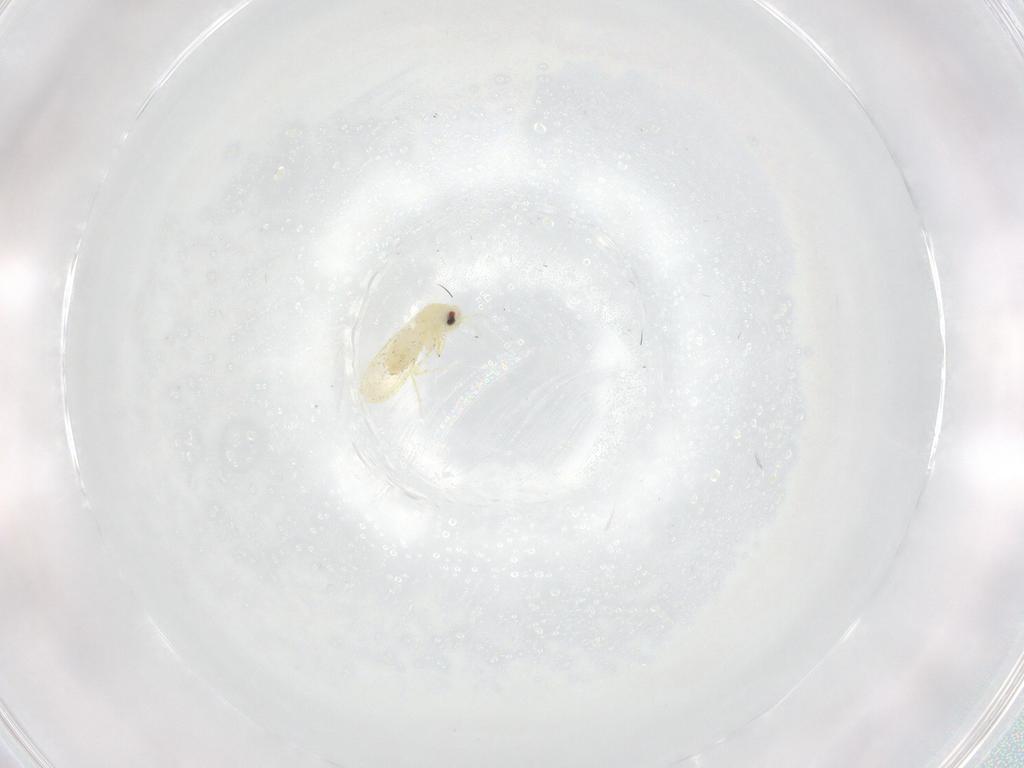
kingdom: Animalia
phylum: Arthropoda
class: Insecta
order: Hemiptera
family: Aleyrodidae
